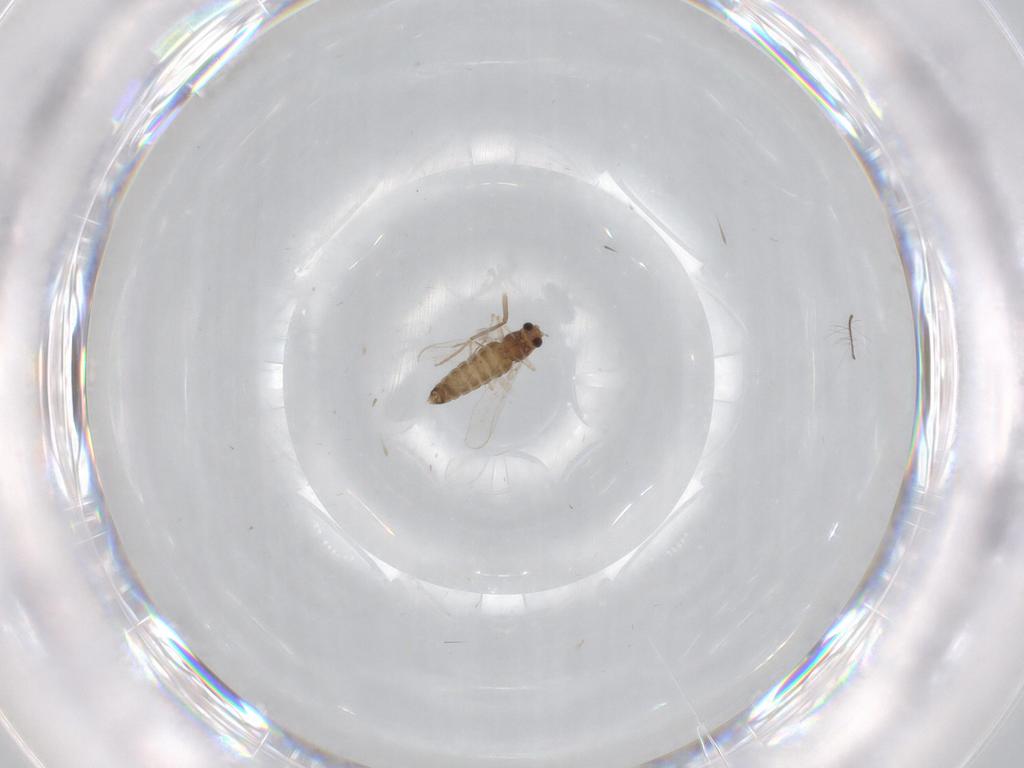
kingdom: Animalia
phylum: Arthropoda
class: Insecta
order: Diptera
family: Chironomidae
